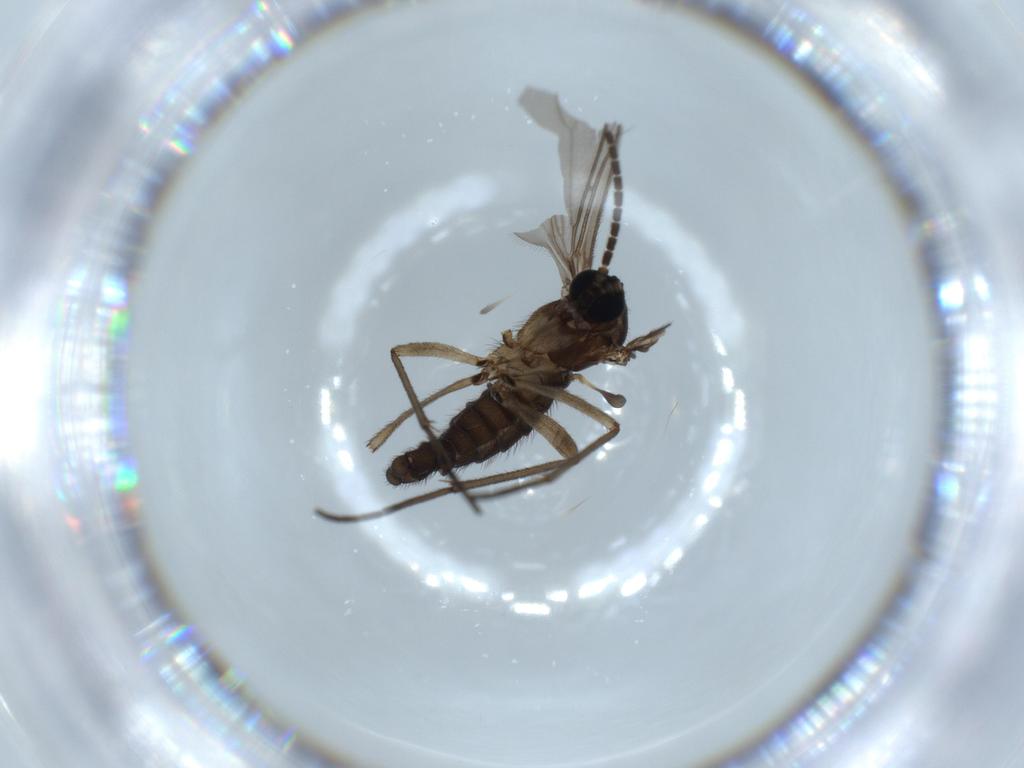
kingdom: Animalia
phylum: Arthropoda
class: Insecta
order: Diptera
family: Sciaridae
